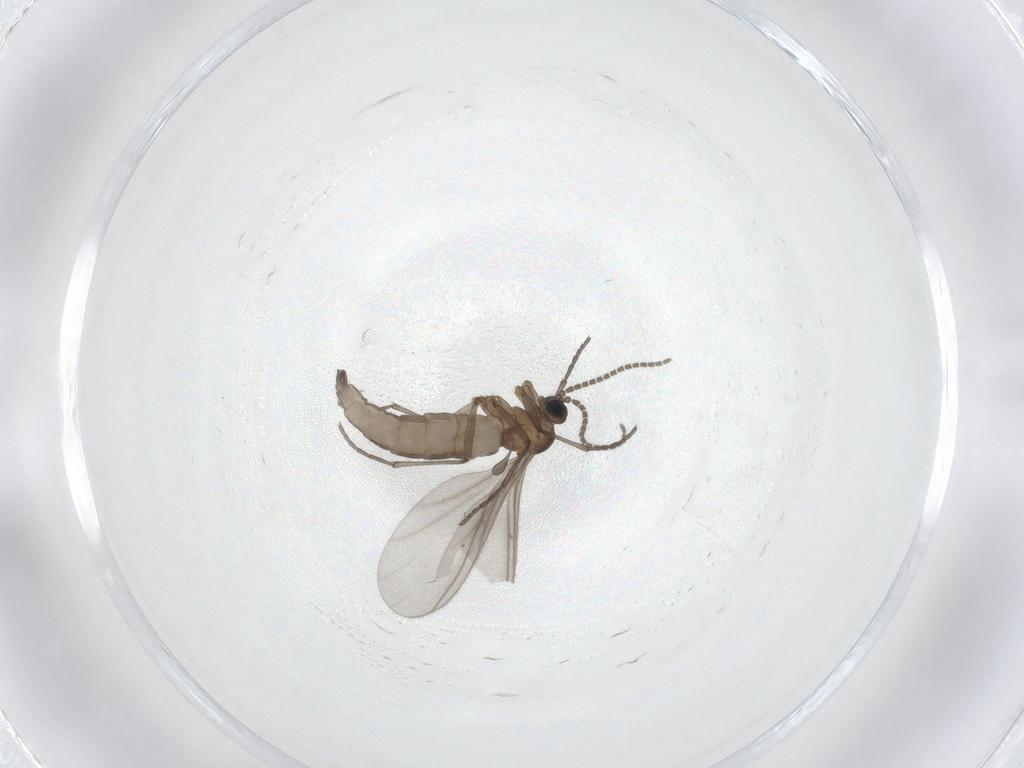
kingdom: Animalia
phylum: Arthropoda
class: Insecta
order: Diptera
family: Sciaridae
